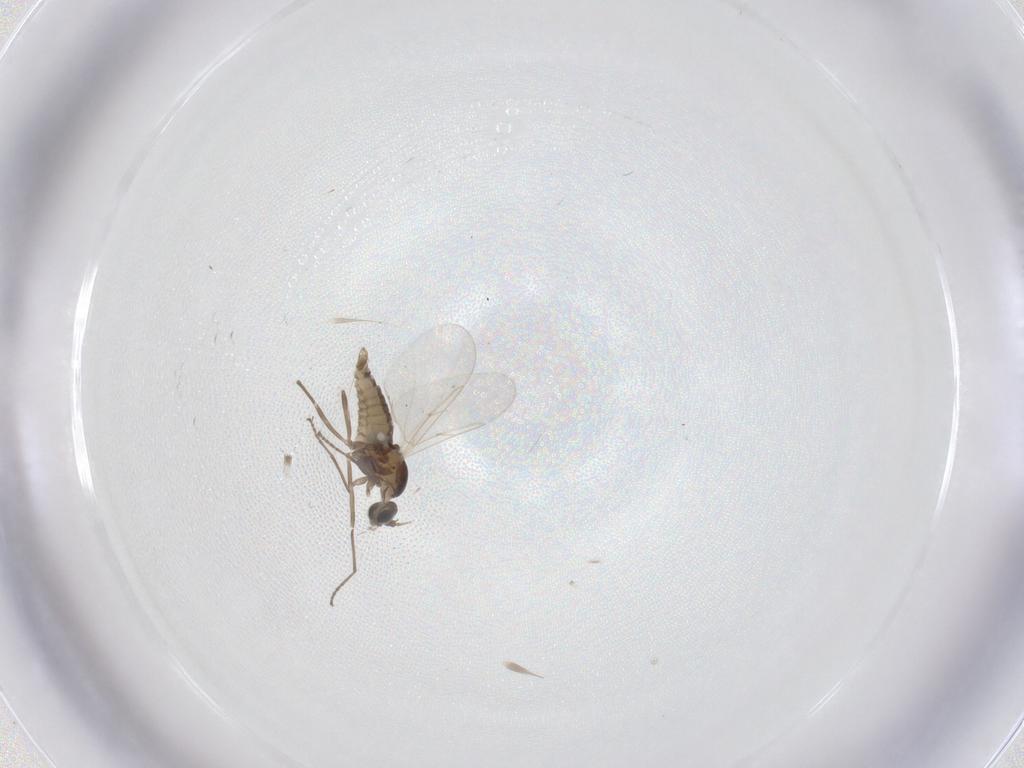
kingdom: Animalia
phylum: Arthropoda
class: Insecta
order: Diptera
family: Cecidomyiidae
